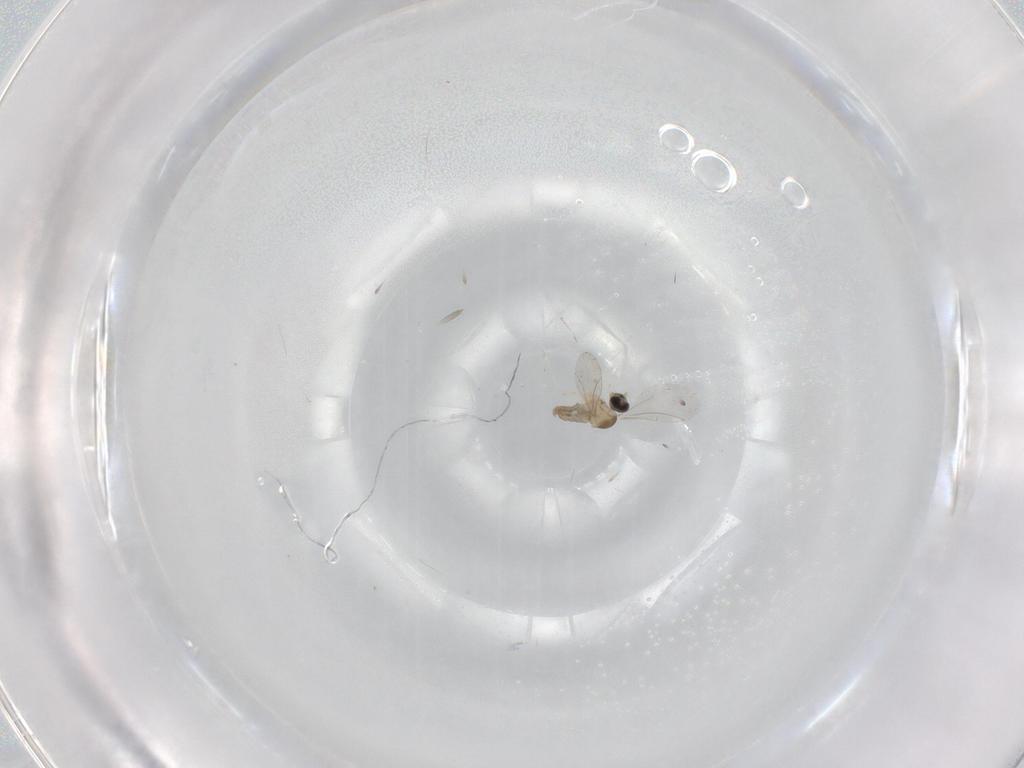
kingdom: Animalia
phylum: Arthropoda
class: Insecta
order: Diptera
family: Cecidomyiidae
